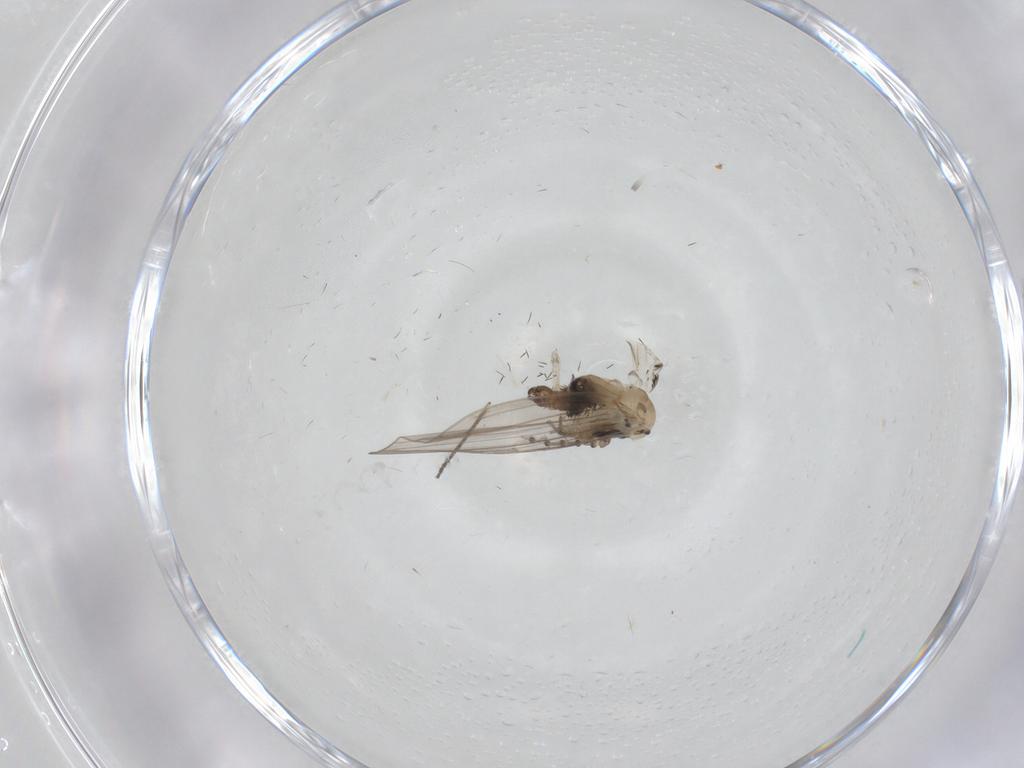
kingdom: Animalia
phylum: Arthropoda
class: Insecta
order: Diptera
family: Psychodidae
